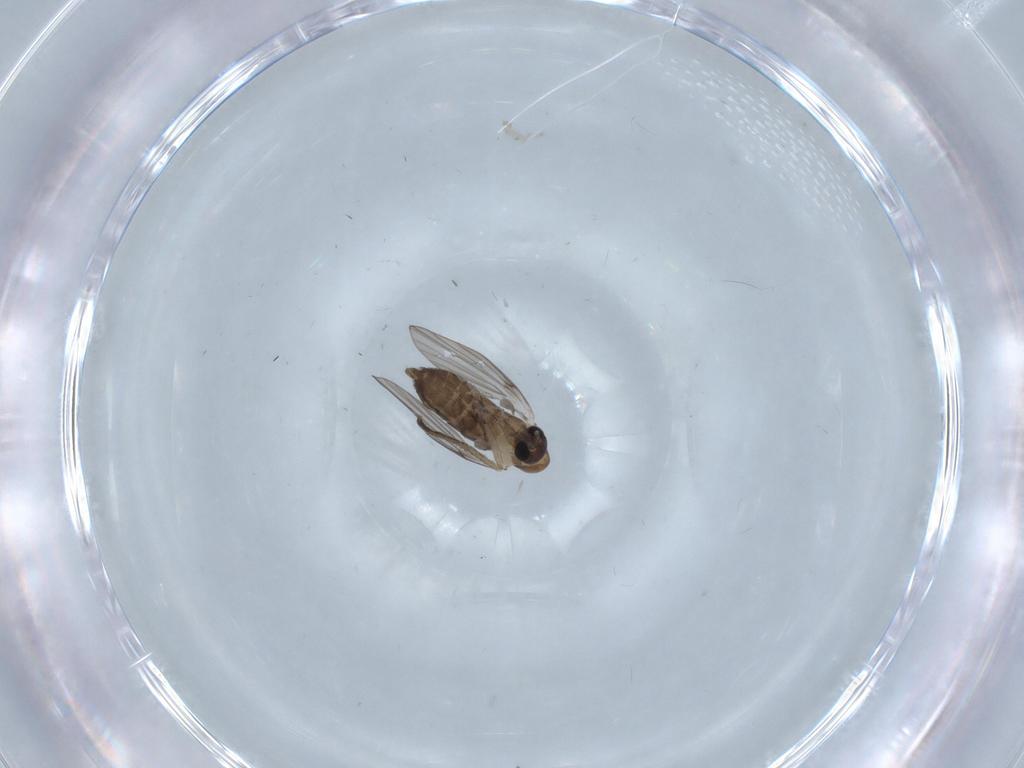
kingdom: Animalia
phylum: Arthropoda
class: Insecta
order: Diptera
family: Psychodidae
